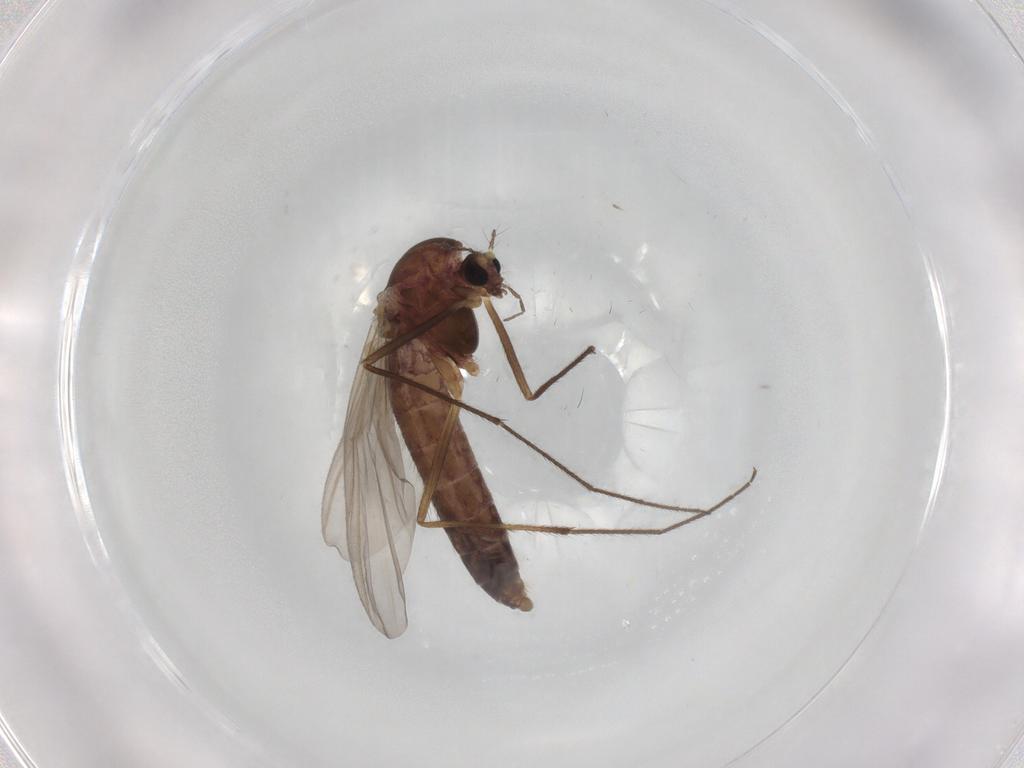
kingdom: Animalia
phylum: Arthropoda
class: Insecta
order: Diptera
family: Chironomidae
